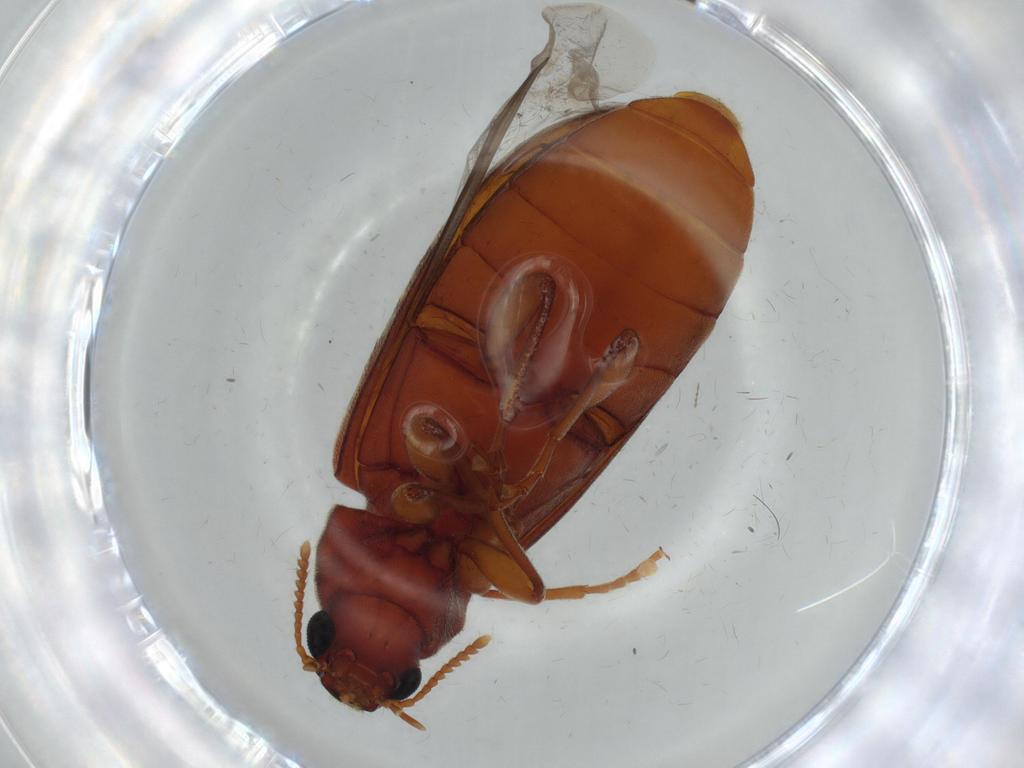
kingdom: Animalia
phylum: Arthropoda
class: Insecta
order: Coleoptera
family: Mycteridae
